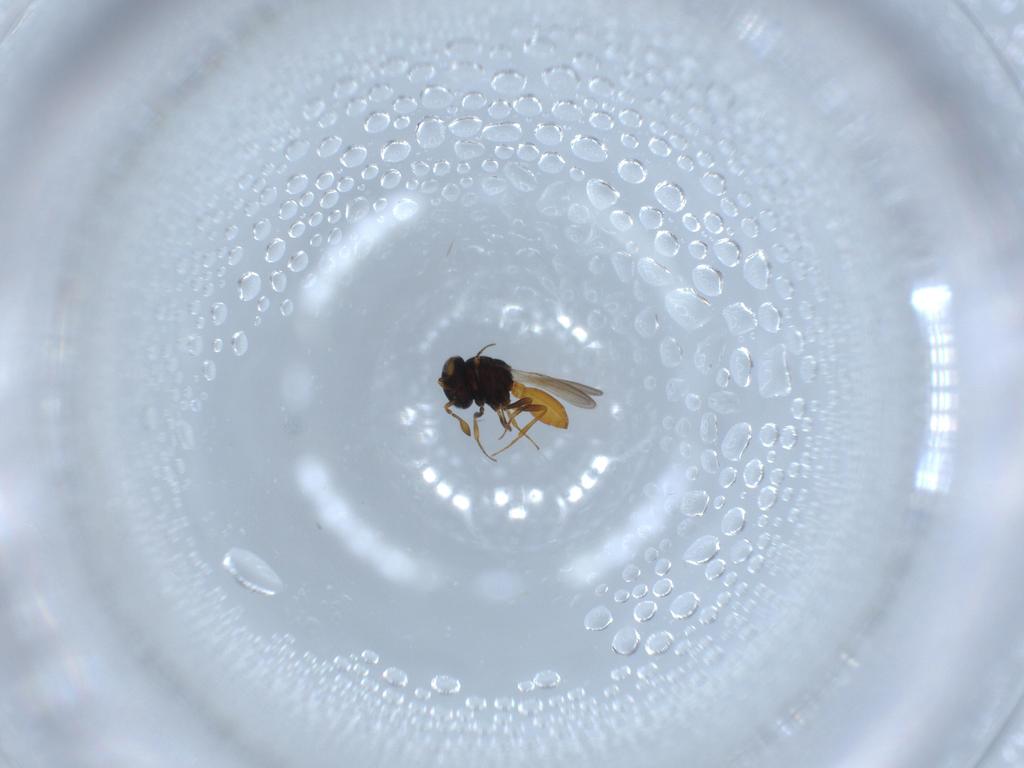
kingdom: Animalia
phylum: Arthropoda
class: Insecta
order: Hymenoptera
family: Scelionidae
